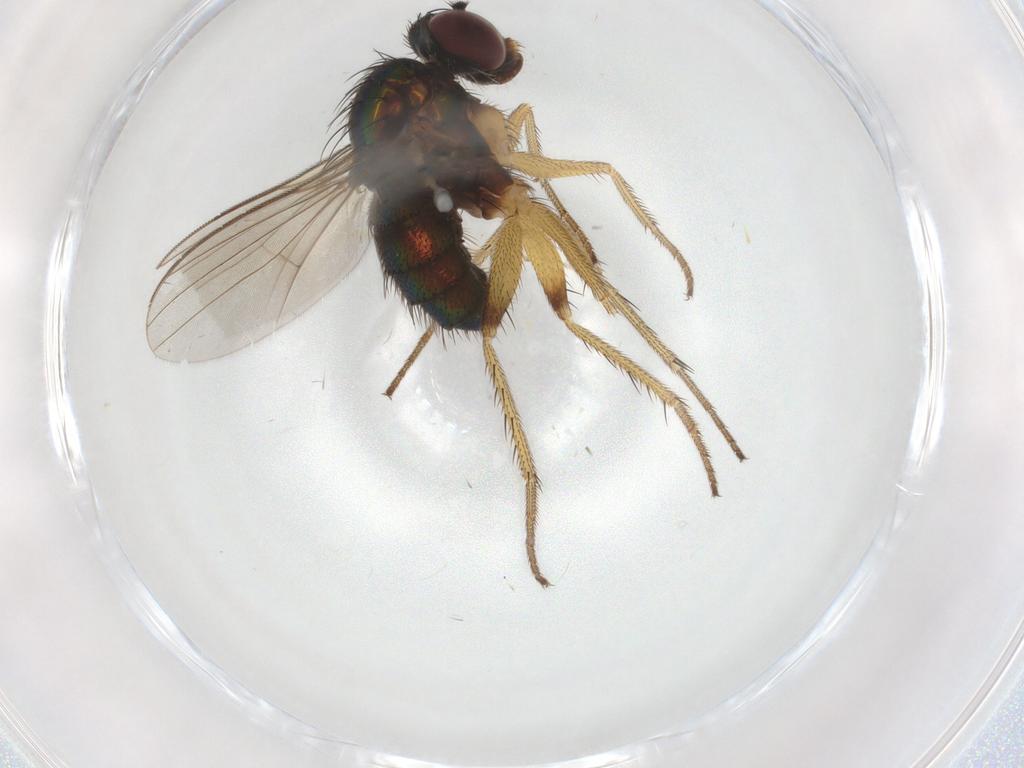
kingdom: Animalia
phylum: Arthropoda
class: Insecta
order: Diptera
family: Dolichopodidae
